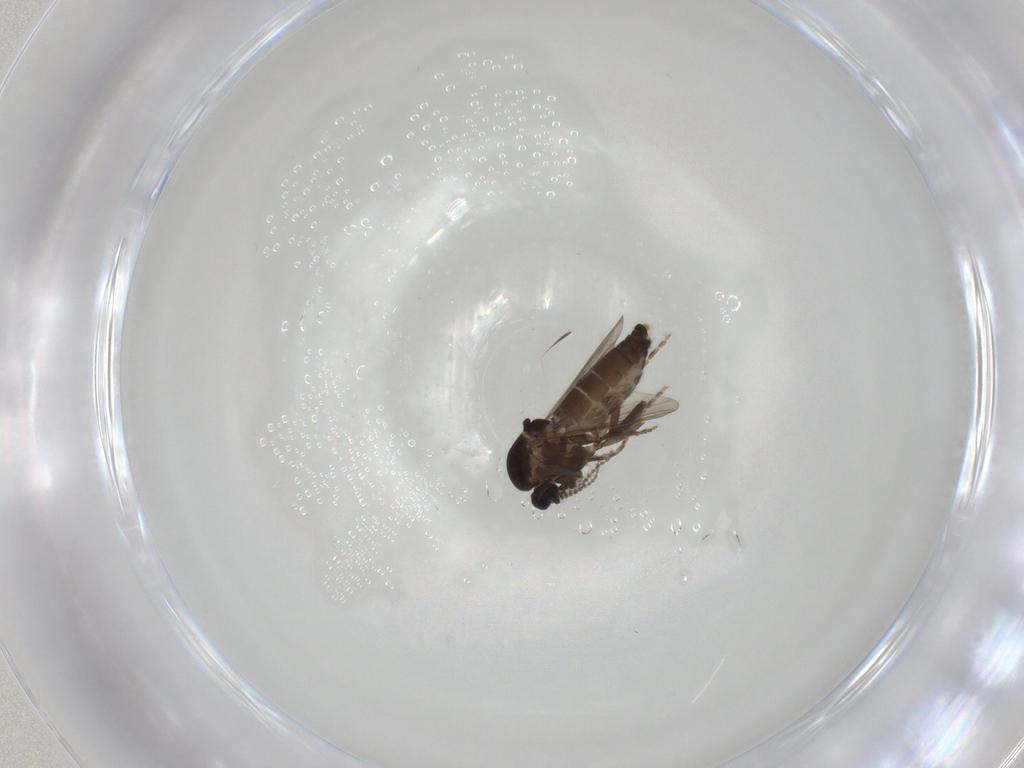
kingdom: Animalia
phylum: Arthropoda
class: Insecta
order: Diptera
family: Ceratopogonidae
